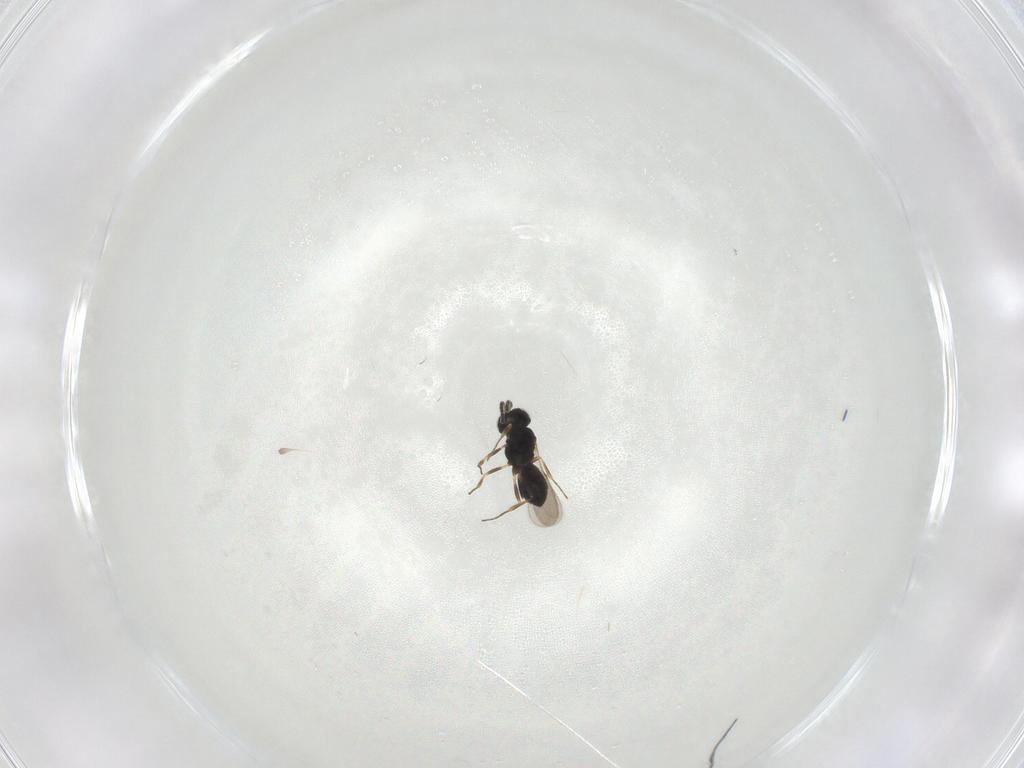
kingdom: Animalia
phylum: Arthropoda
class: Insecta
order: Hymenoptera
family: Scelionidae
